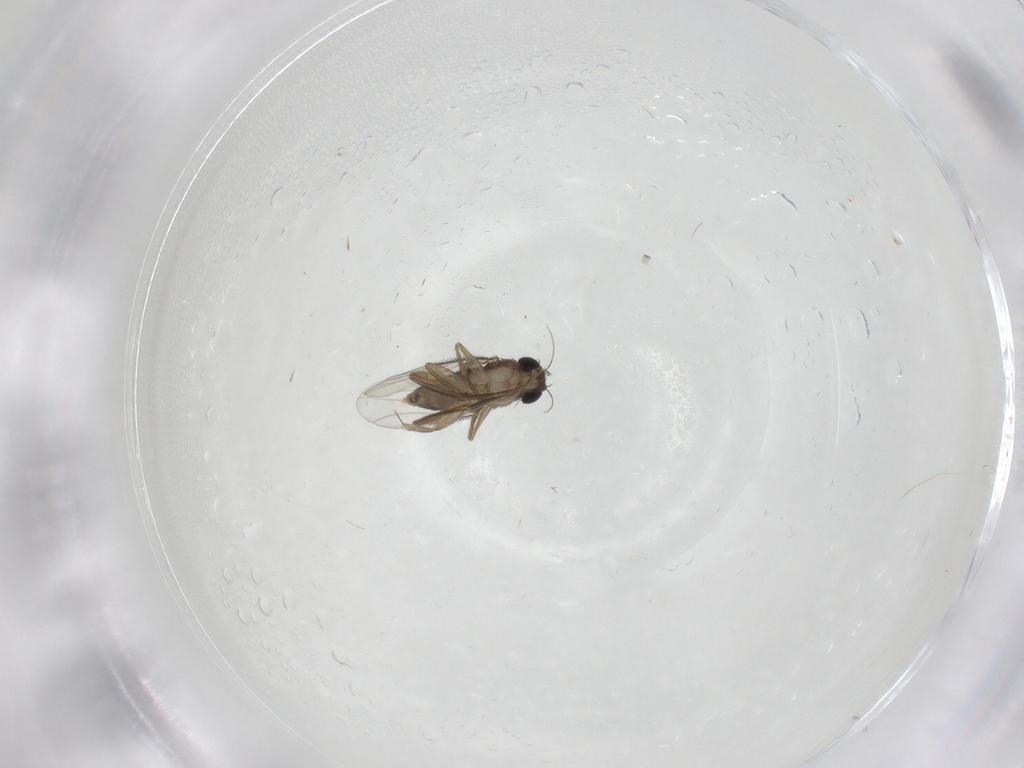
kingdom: Animalia
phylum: Arthropoda
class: Insecta
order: Diptera
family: Phoridae
